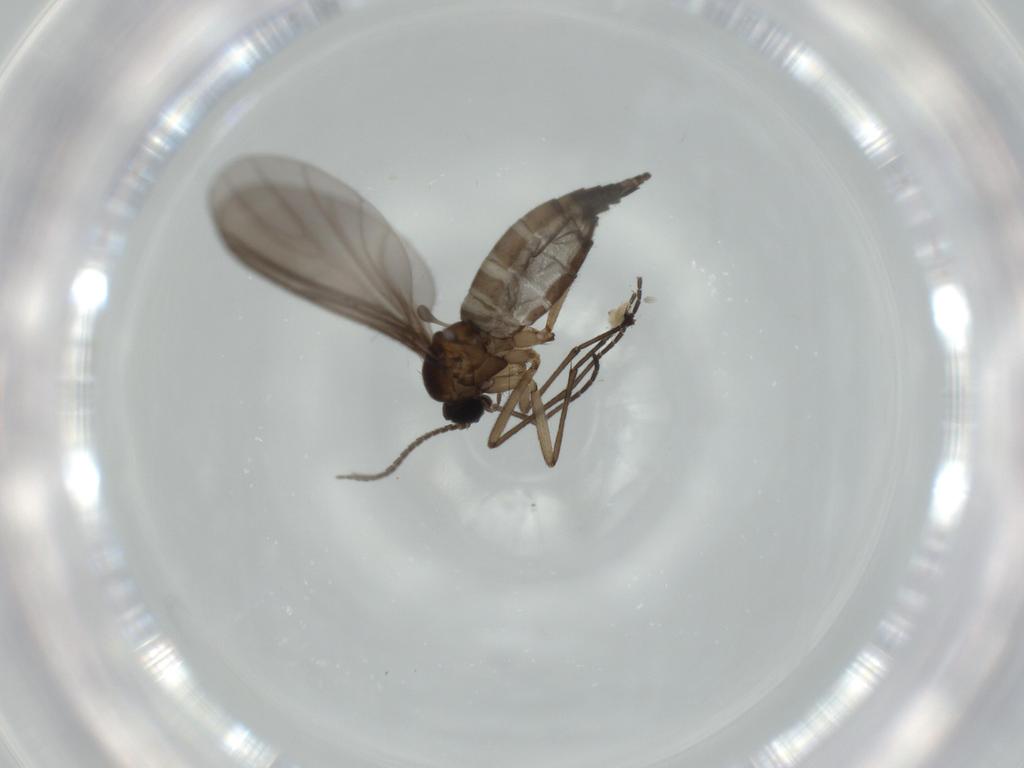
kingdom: Animalia
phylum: Arthropoda
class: Insecta
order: Diptera
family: Sciaridae
